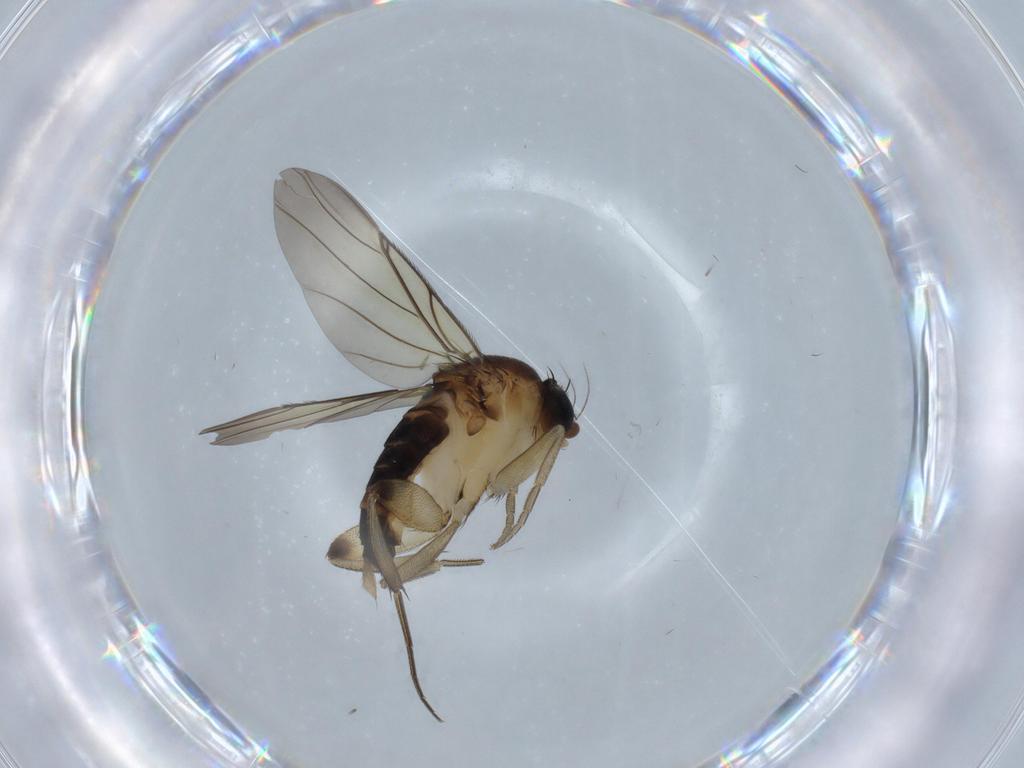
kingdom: Animalia
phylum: Arthropoda
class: Insecta
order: Diptera
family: Phoridae
